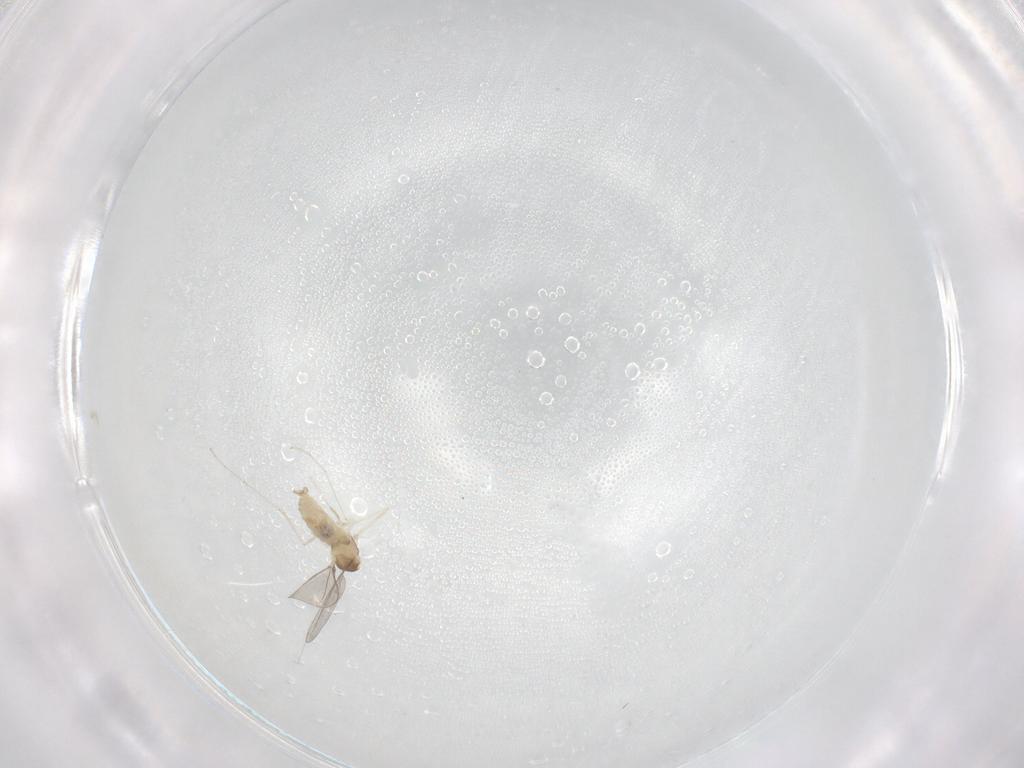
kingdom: Animalia
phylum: Arthropoda
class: Insecta
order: Diptera
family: Cecidomyiidae
